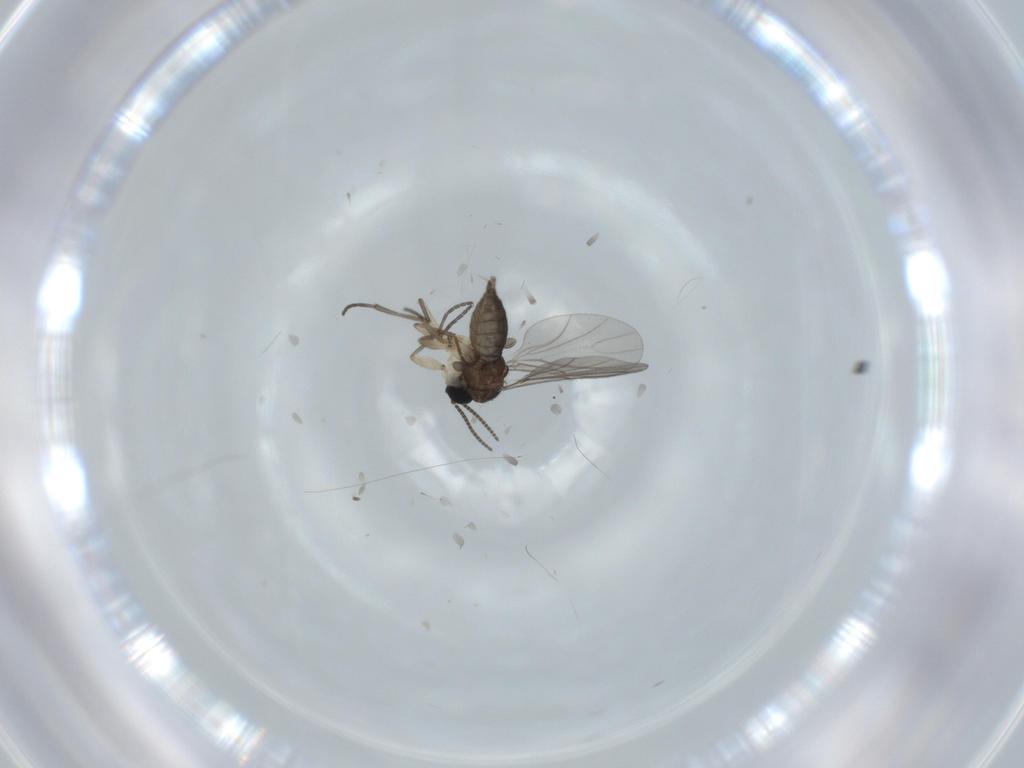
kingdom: Animalia
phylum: Arthropoda
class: Insecta
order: Diptera
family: Sciaridae
